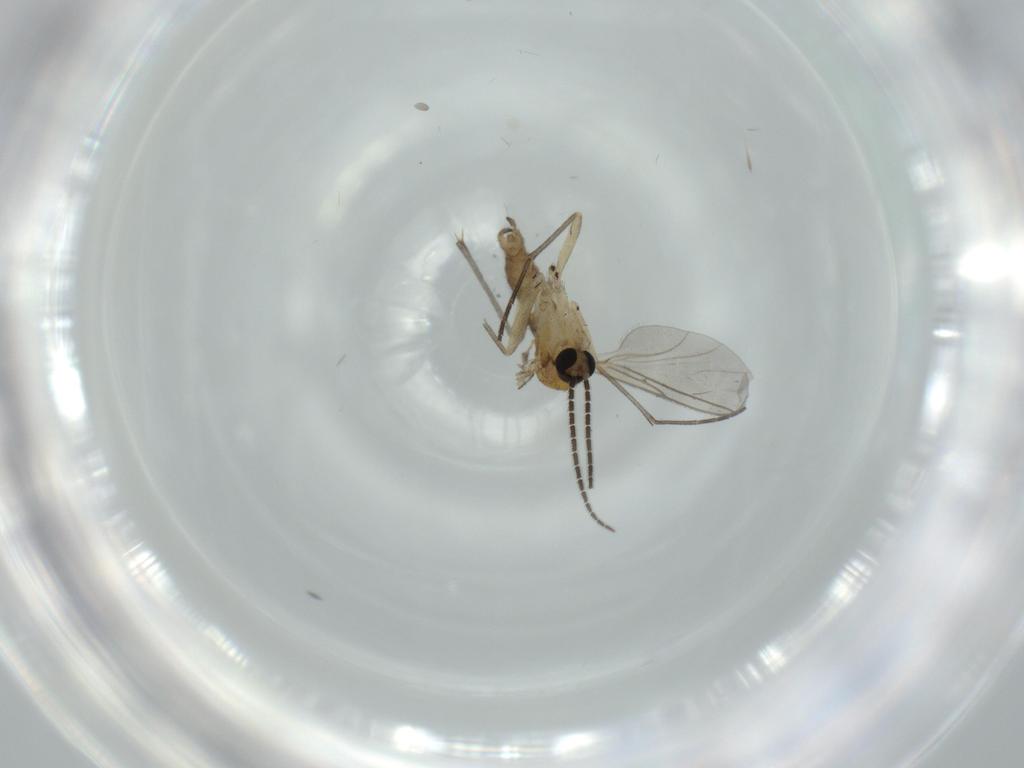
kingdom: Animalia
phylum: Arthropoda
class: Insecta
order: Diptera
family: Sciaridae
